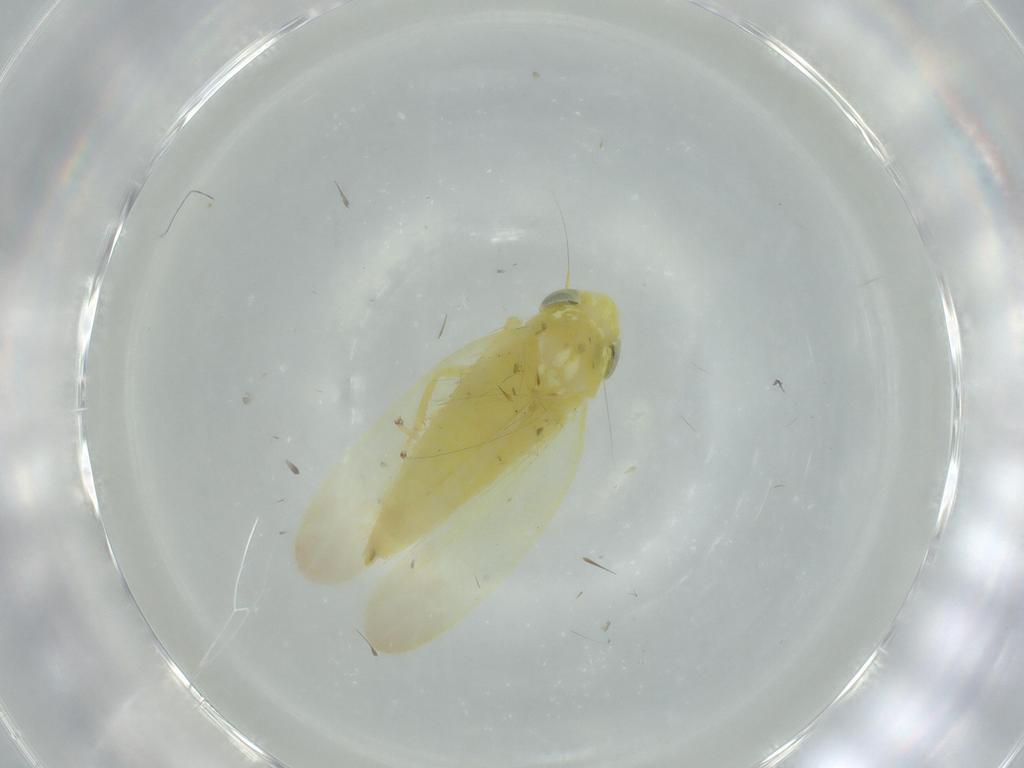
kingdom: Animalia
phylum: Arthropoda
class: Insecta
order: Hemiptera
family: Cicadellidae
